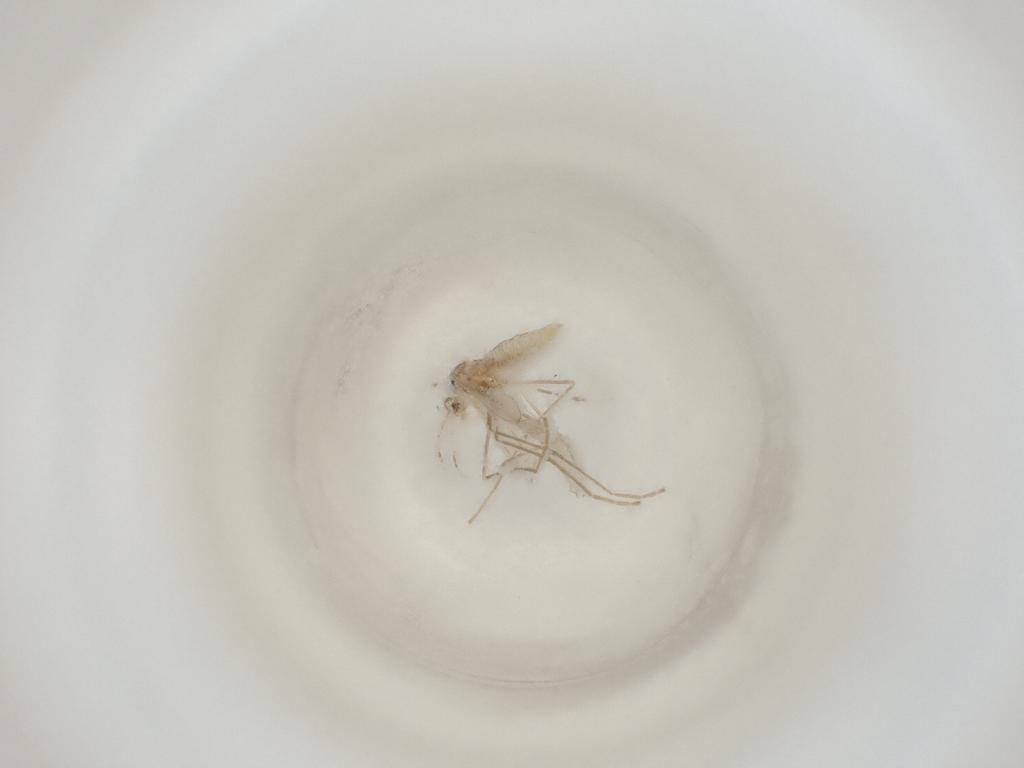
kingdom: Animalia
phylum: Arthropoda
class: Insecta
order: Diptera
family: Cecidomyiidae
